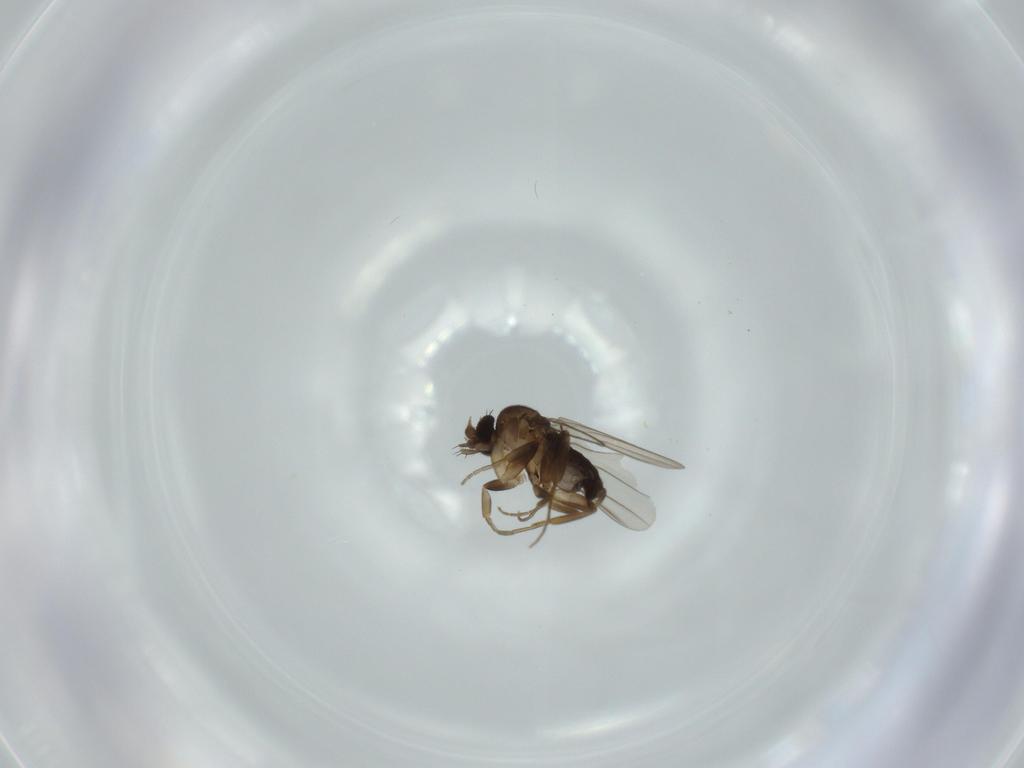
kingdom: Animalia
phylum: Arthropoda
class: Insecta
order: Diptera
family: Phoridae
